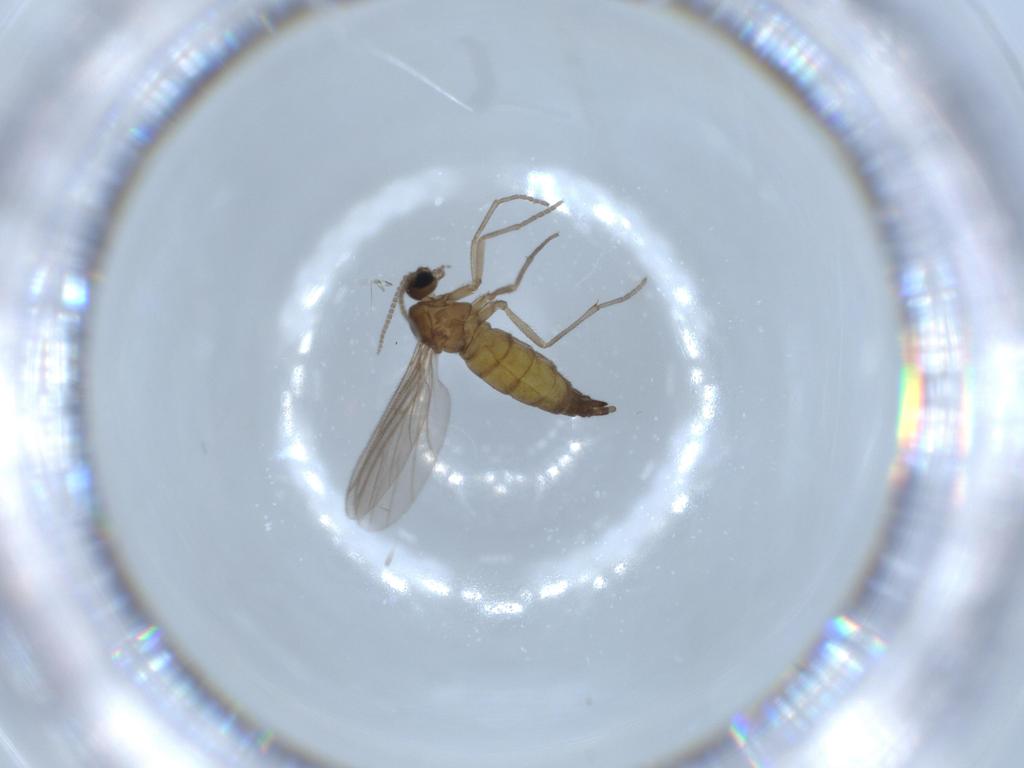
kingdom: Animalia
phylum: Arthropoda
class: Insecta
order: Diptera
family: Sciaridae
